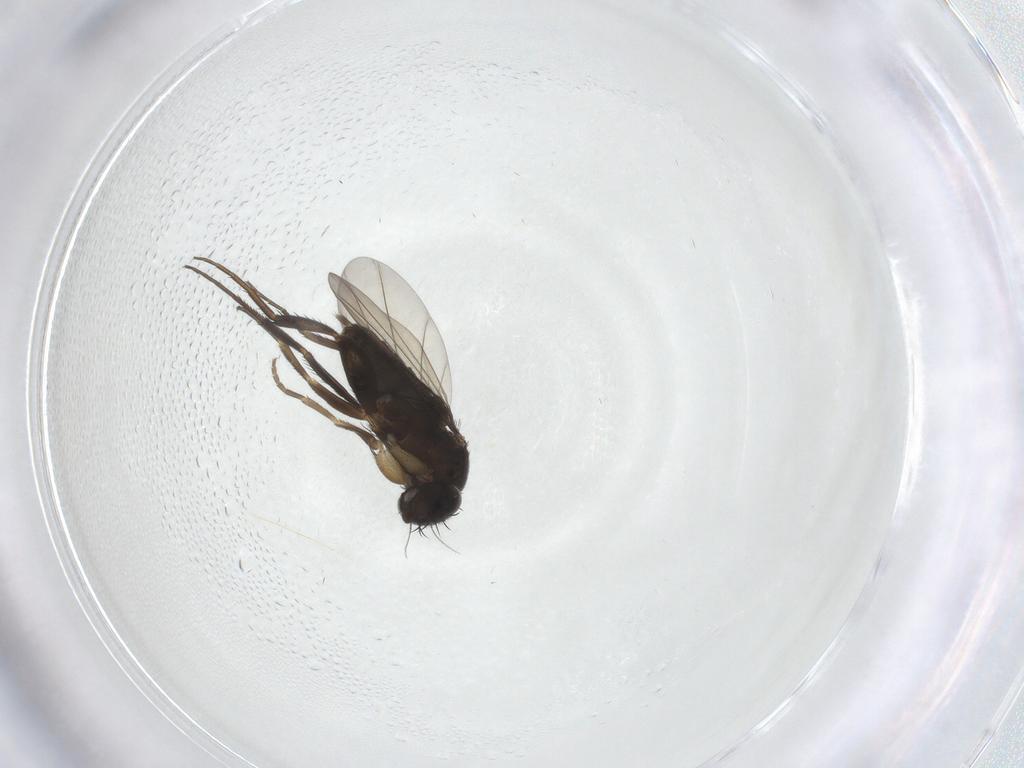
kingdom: Animalia
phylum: Arthropoda
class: Insecta
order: Diptera
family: Phoridae
